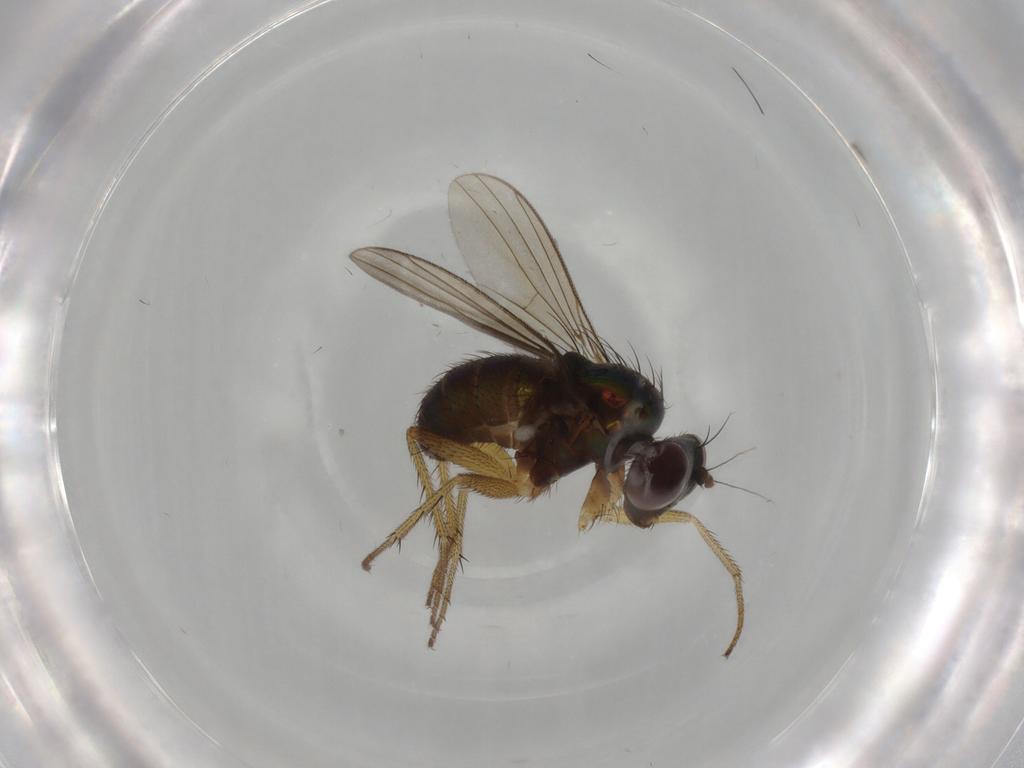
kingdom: Animalia
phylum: Arthropoda
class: Insecta
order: Diptera
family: Dolichopodidae
